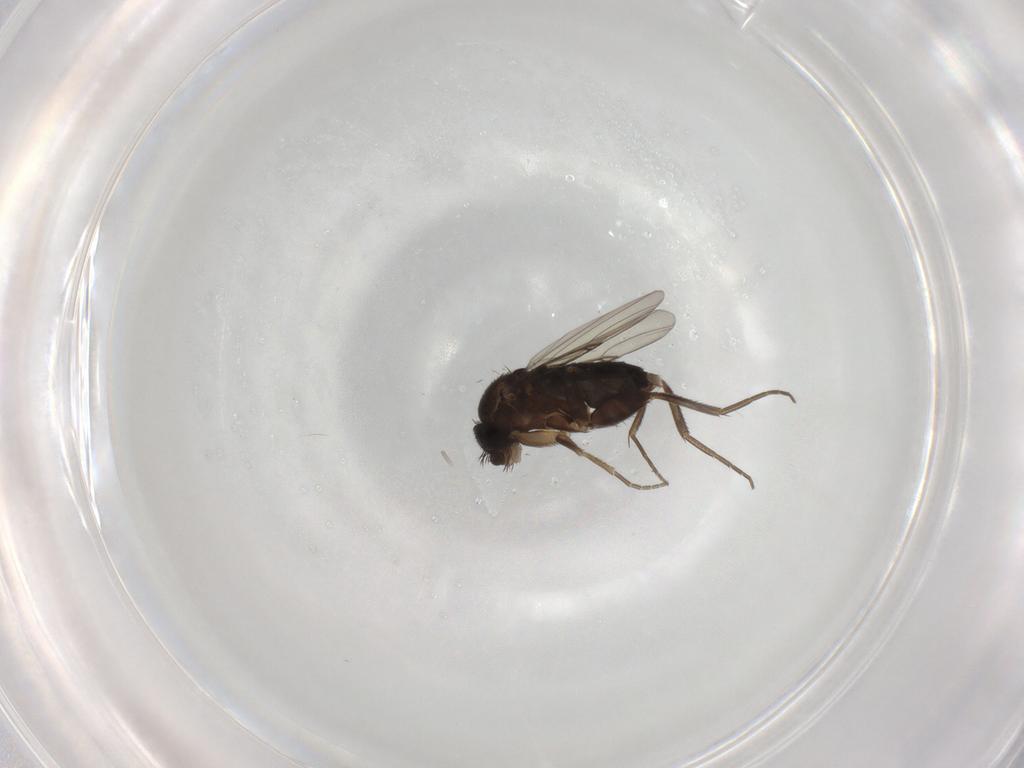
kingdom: Animalia
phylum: Arthropoda
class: Insecta
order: Diptera
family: Phoridae
